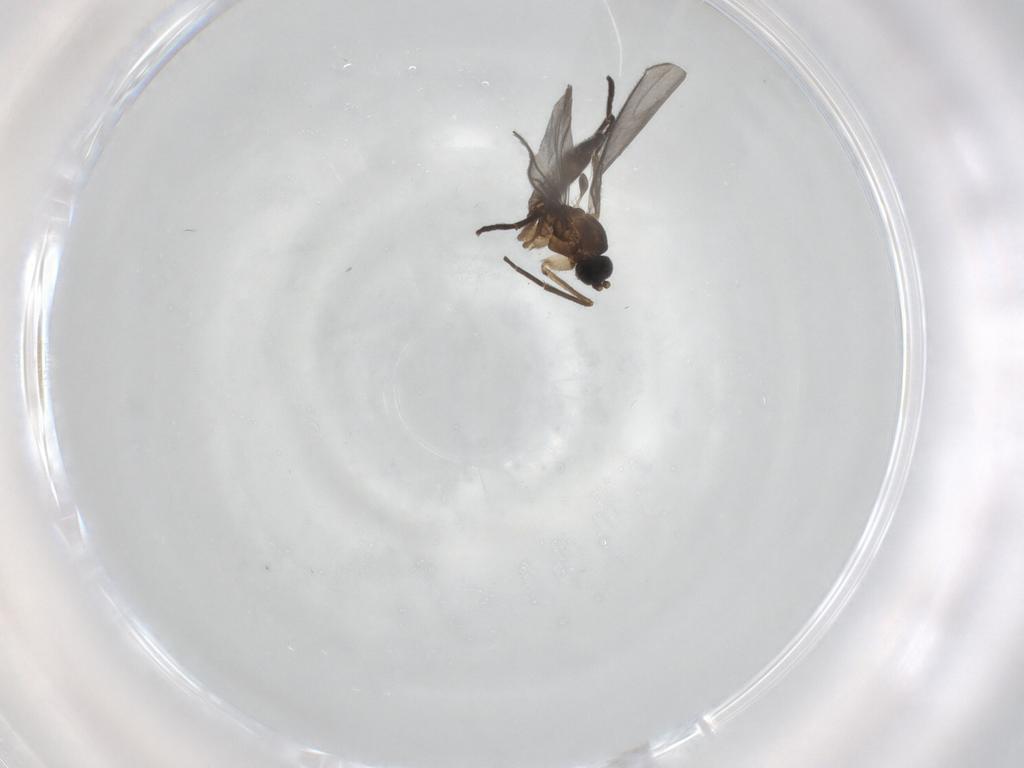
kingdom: Animalia
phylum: Arthropoda
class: Insecta
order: Diptera
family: Sciaridae
